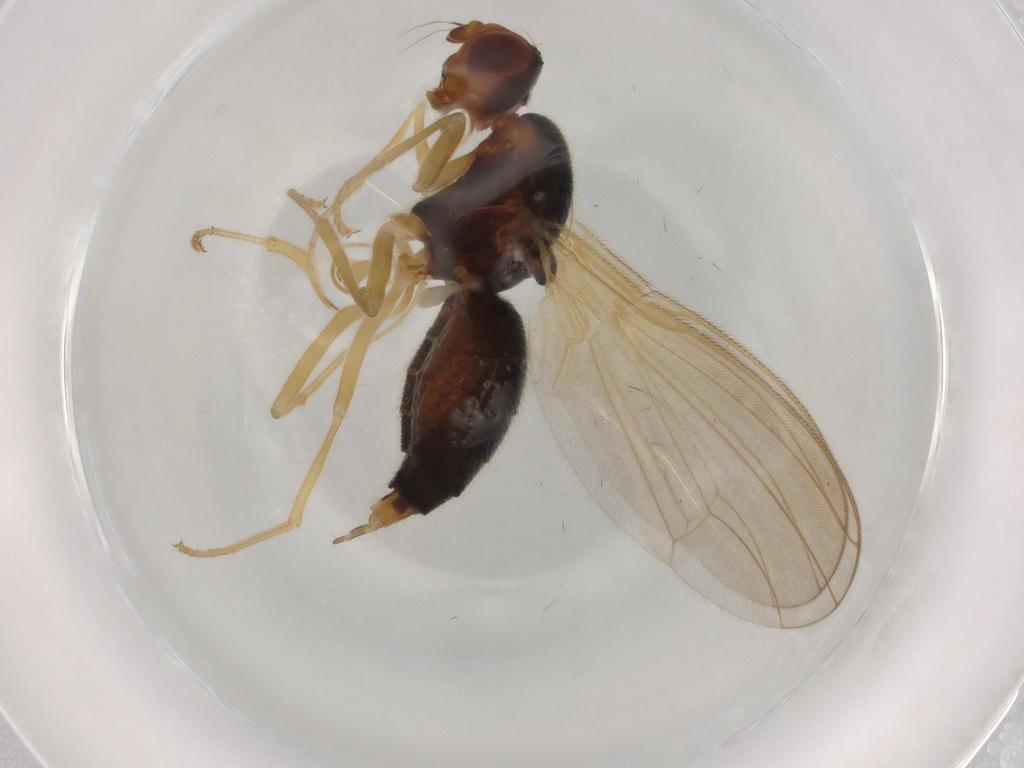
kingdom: Animalia
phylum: Arthropoda
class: Insecta
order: Diptera
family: Psilidae
